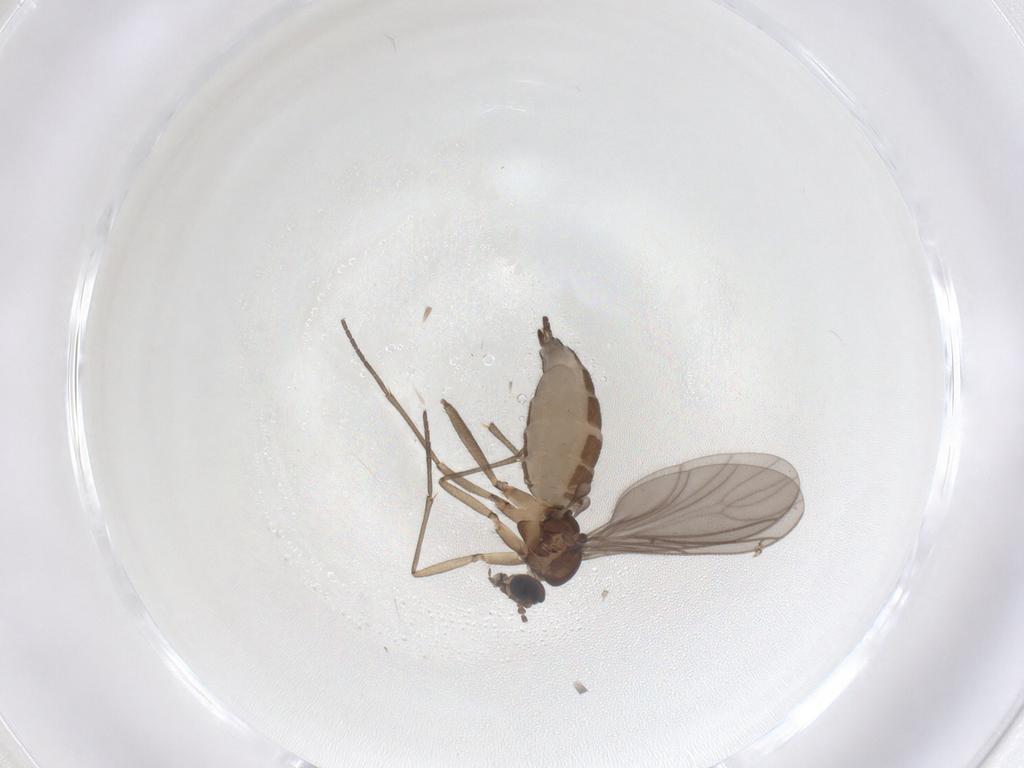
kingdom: Animalia
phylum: Arthropoda
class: Insecta
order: Diptera
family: Sciaridae
